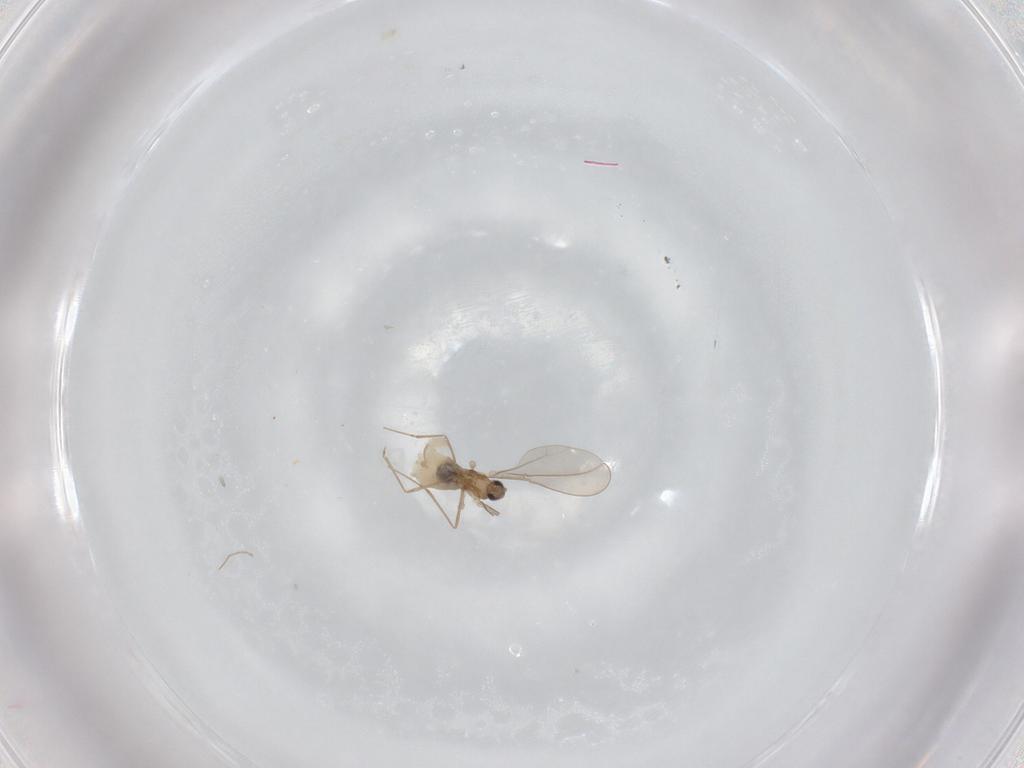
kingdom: Animalia
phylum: Arthropoda
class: Insecta
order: Diptera
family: Cecidomyiidae
